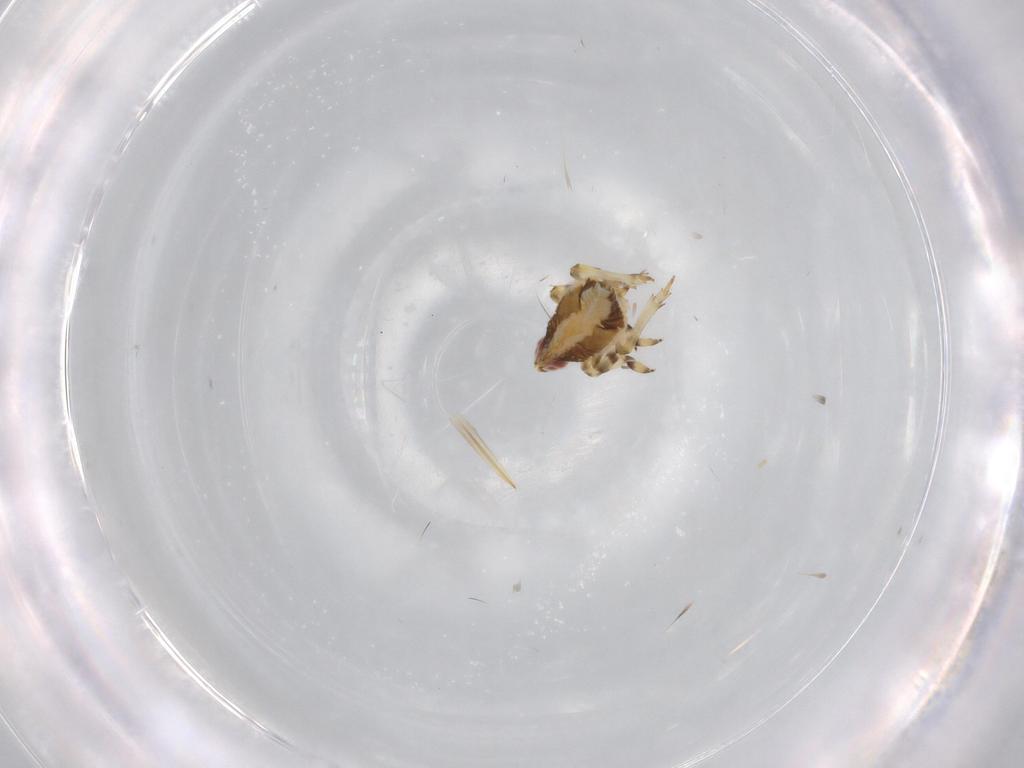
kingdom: Animalia
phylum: Arthropoda
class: Insecta
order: Hemiptera
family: Issidae
